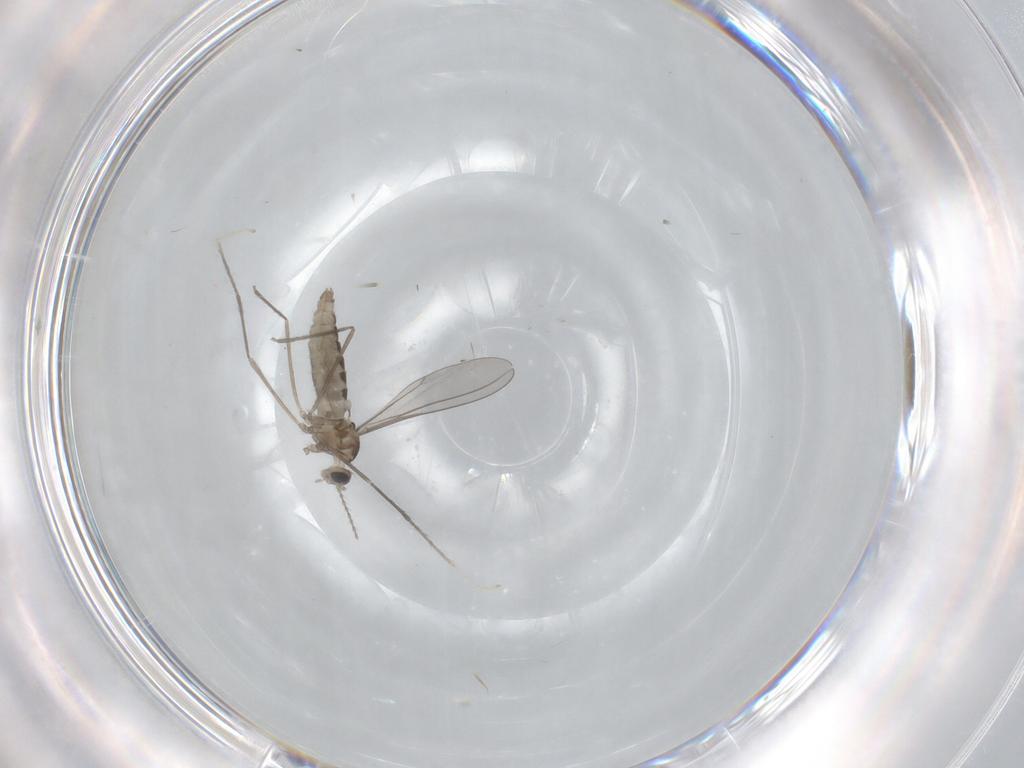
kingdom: Animalia
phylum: Arthropoda
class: Insecta
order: Diptera
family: Cecidomyiidae
